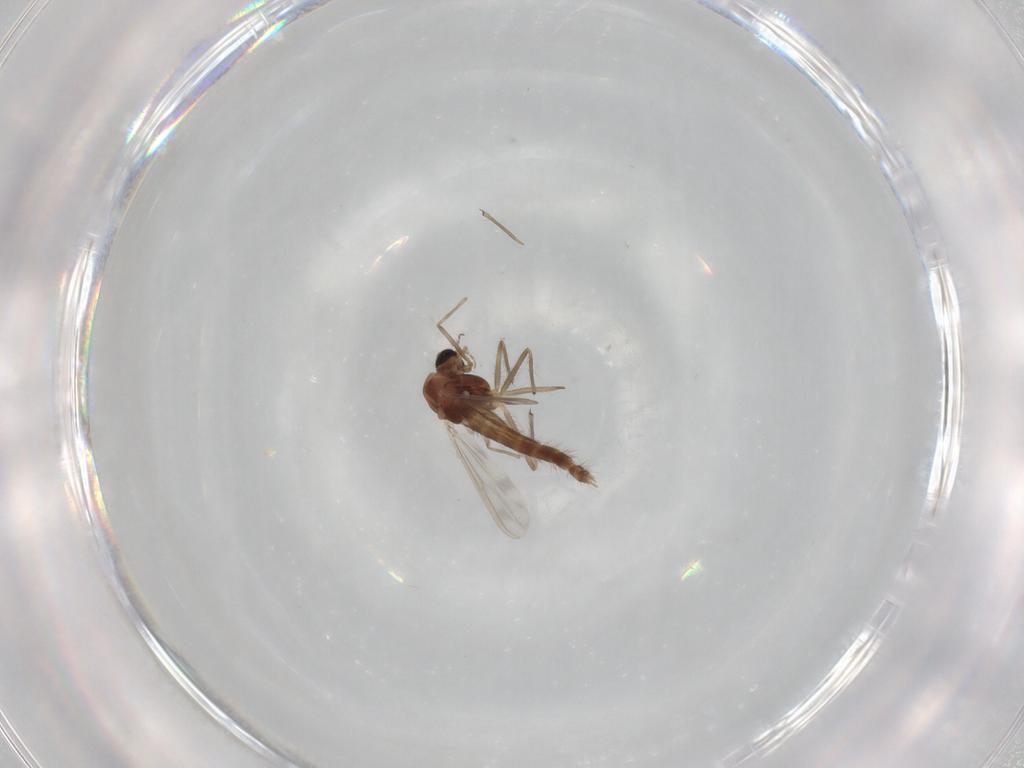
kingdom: Animalia
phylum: Arthropoda
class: Insecta
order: Diptera
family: Chironomidae
